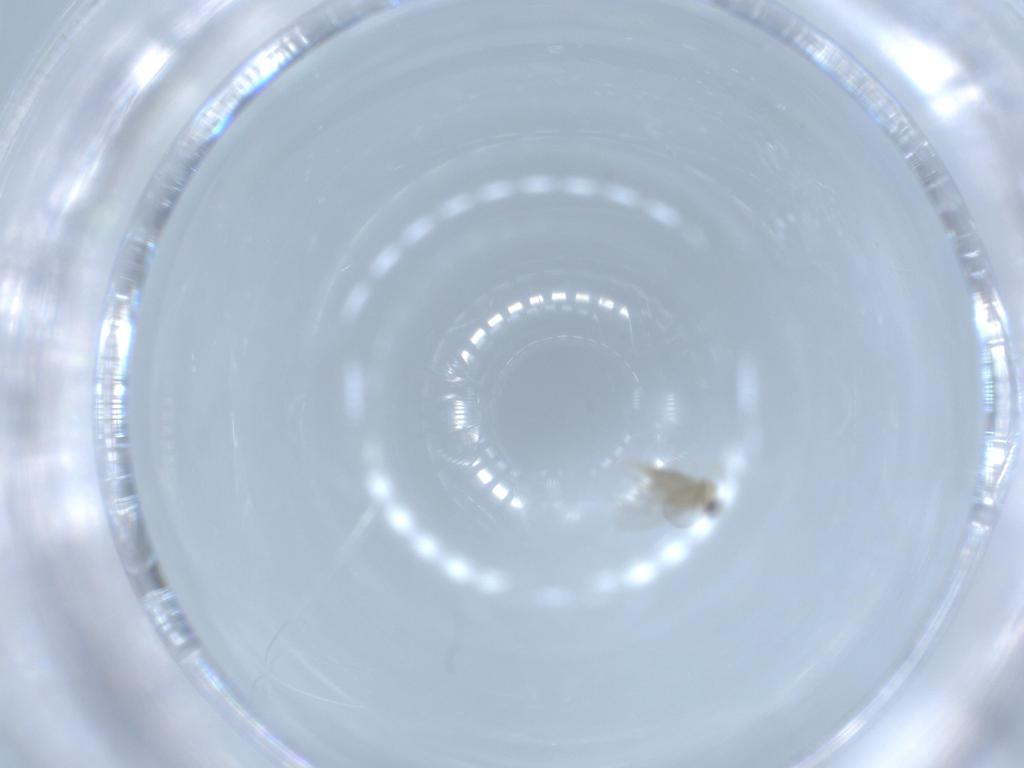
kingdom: Animalia
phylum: Arthropoda
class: Insecta
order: Diptera
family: Cecidomyiidae
